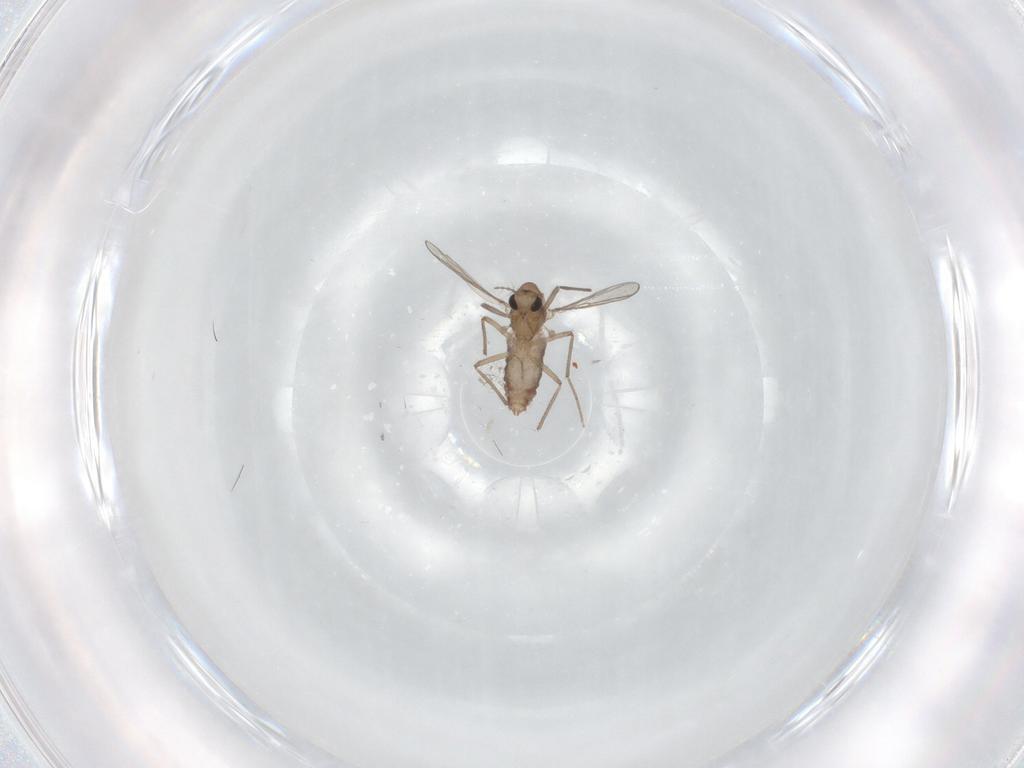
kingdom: Animalia
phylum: Arthropoda
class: Insecta
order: Diptera
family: Chironomidae
